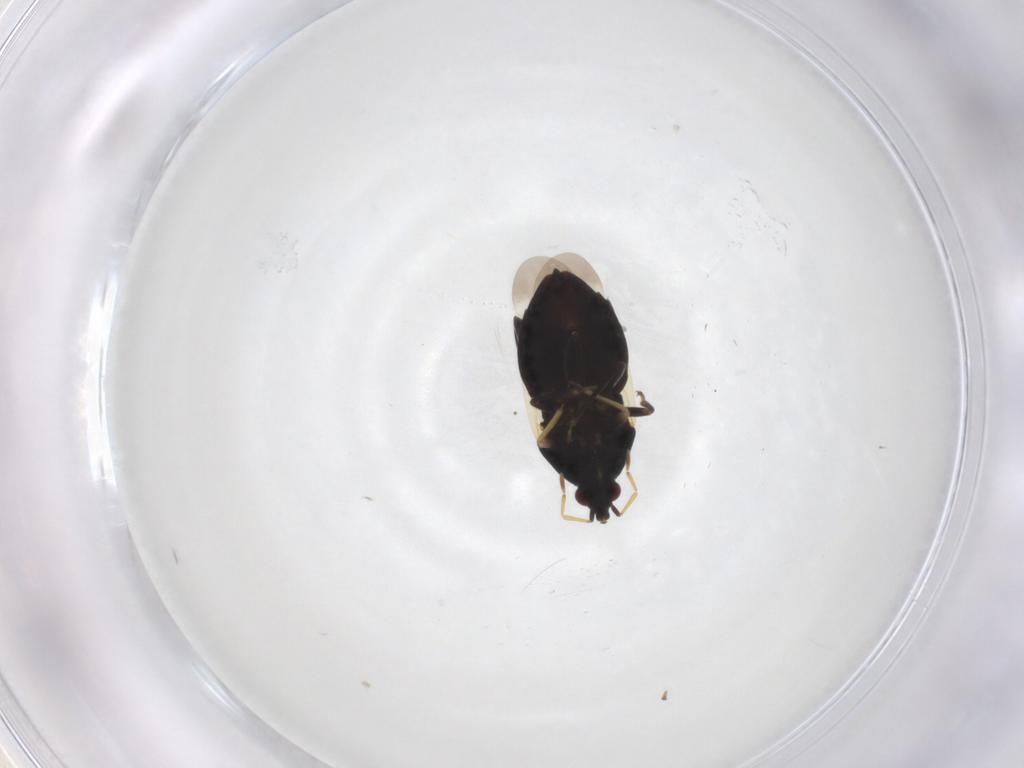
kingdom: Animalia
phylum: Arthropoda
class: Insecta
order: Hemiptera
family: Anthocoridae
